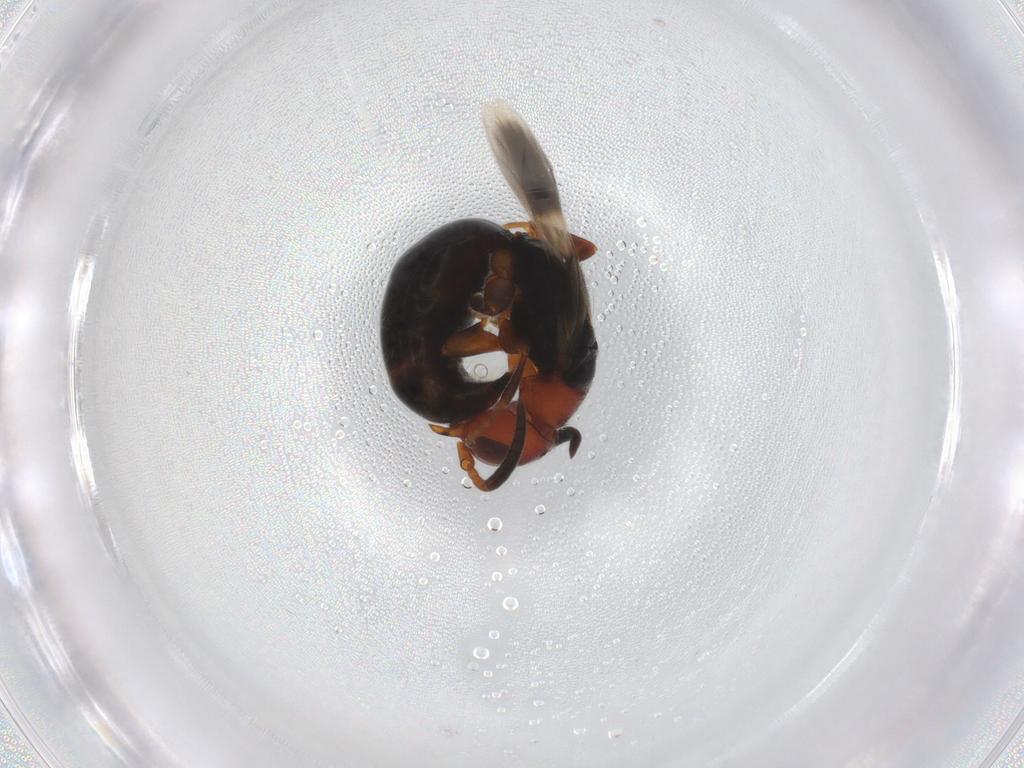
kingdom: Animalia
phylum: Arthropoda
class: Insecta
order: Hymenoptera
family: Bethylidae
